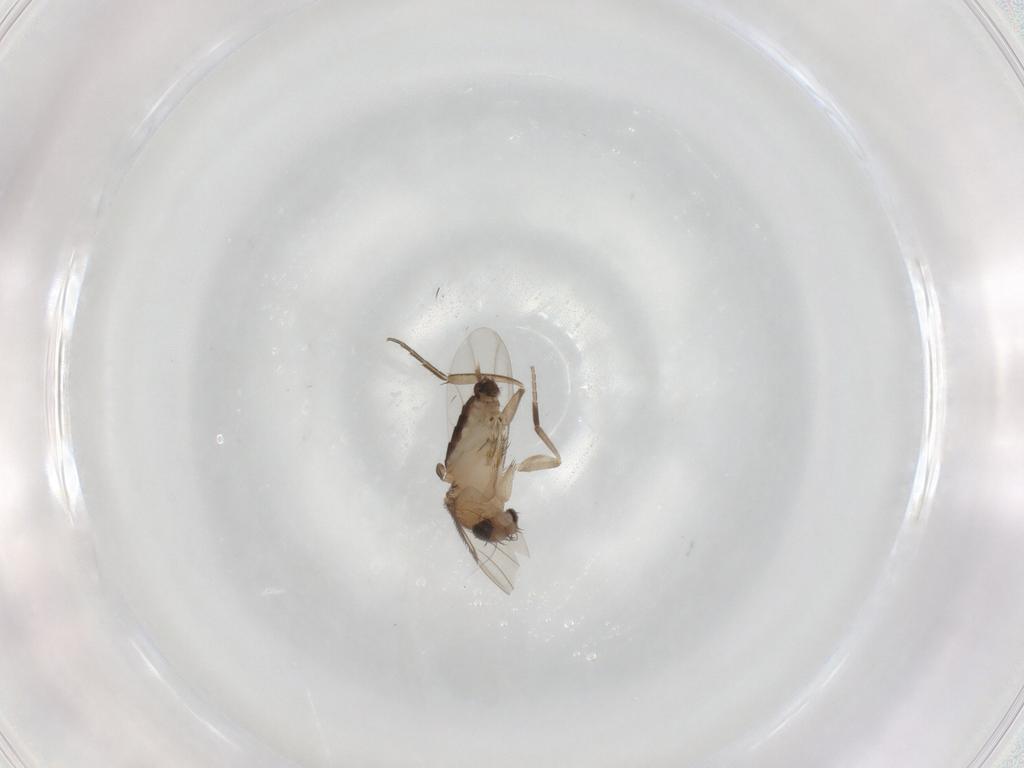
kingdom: Animalia
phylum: Arthropoda
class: Insecta
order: Diptera
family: Phoridae
